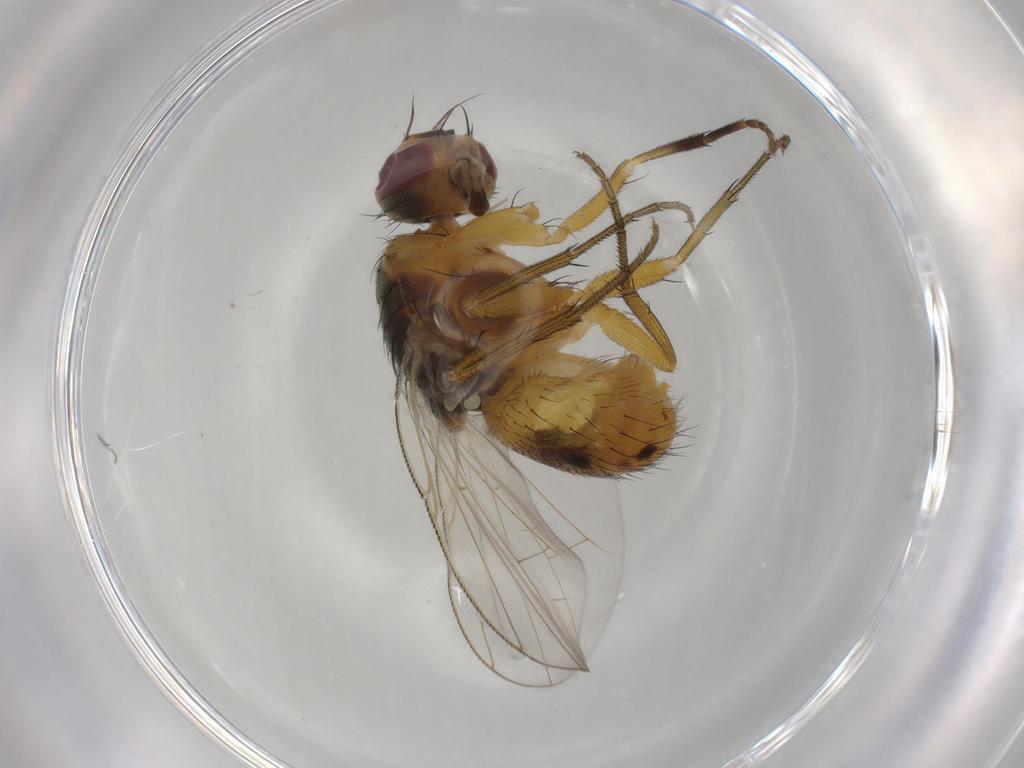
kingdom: Animalia
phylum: Arthropoda
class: Insecta
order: Diptera
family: Muscidae
